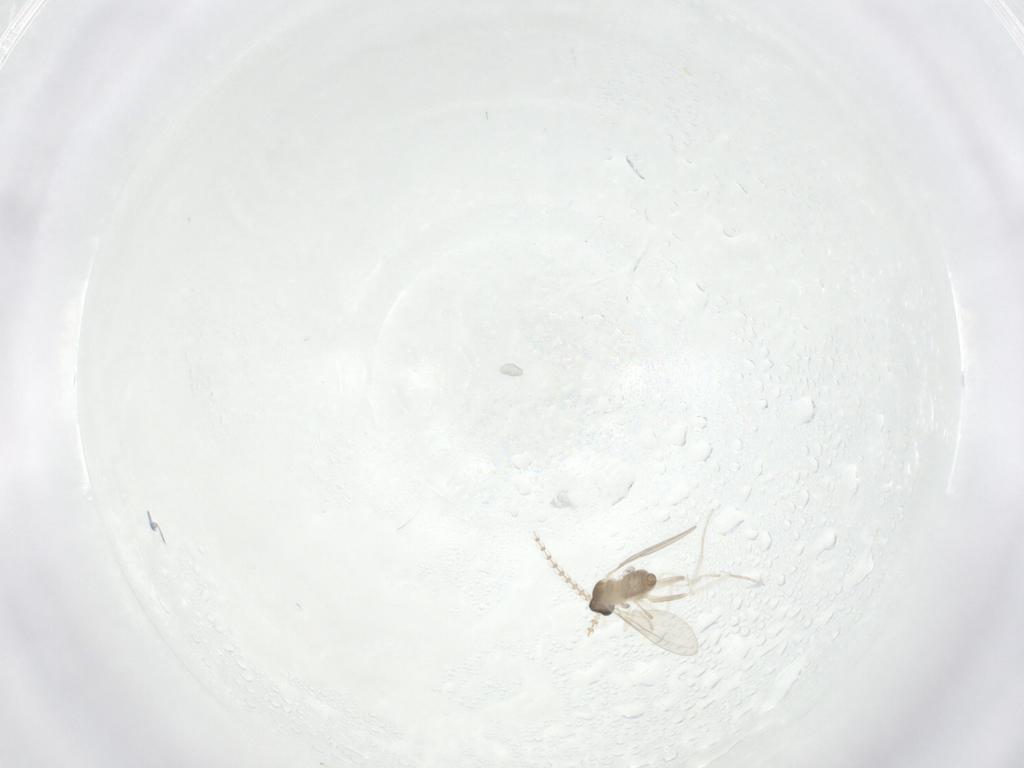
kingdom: Animalia
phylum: Arthropoda
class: Insecta
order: Diptera
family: Cecidomyiidae
